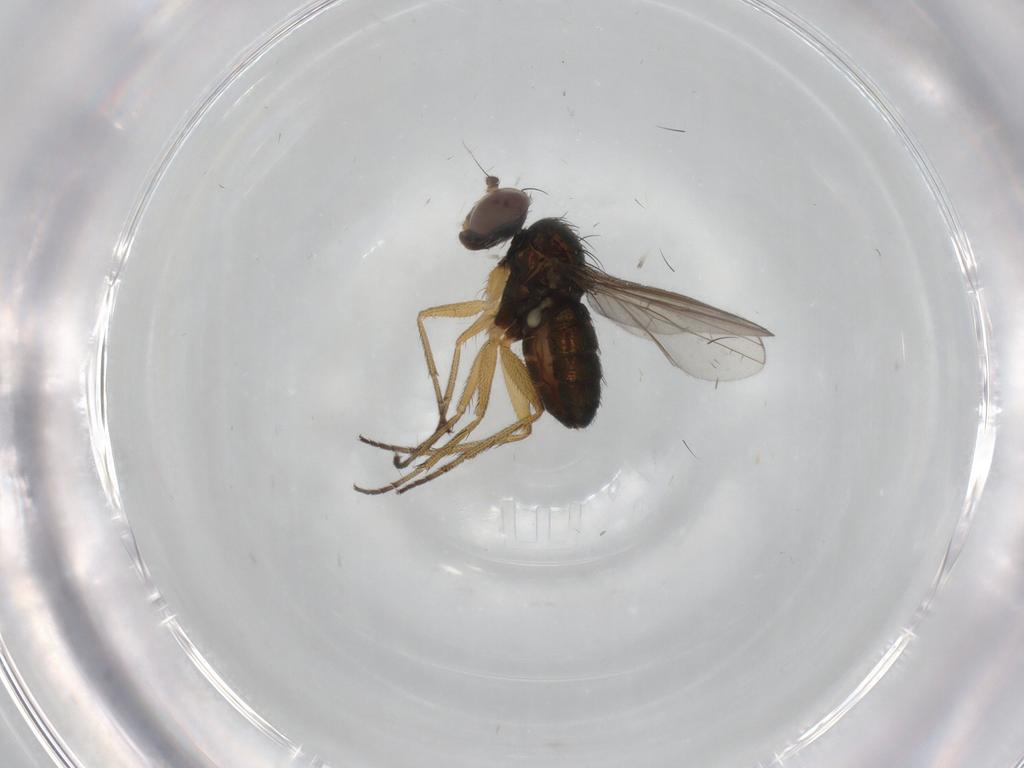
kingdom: Animalia
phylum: Arthropoda
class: Insecta
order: Diptera
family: Dolichopodidae
